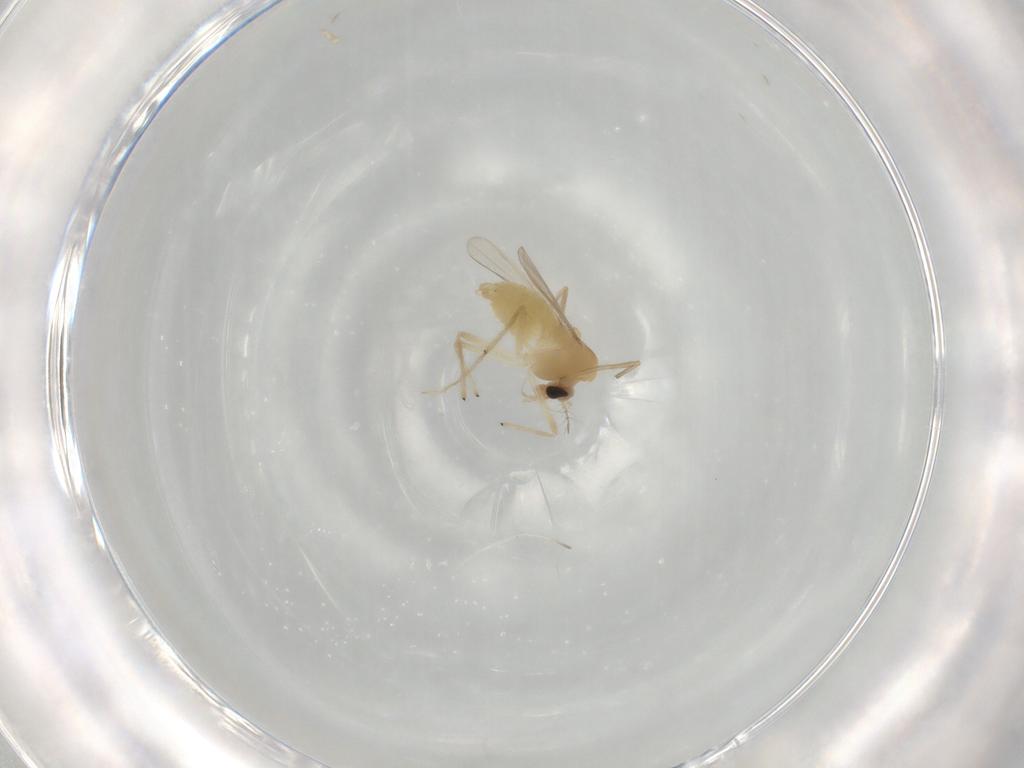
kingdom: Animalia
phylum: Arthropoda
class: Insecta
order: Diptera
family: Chironomidae
